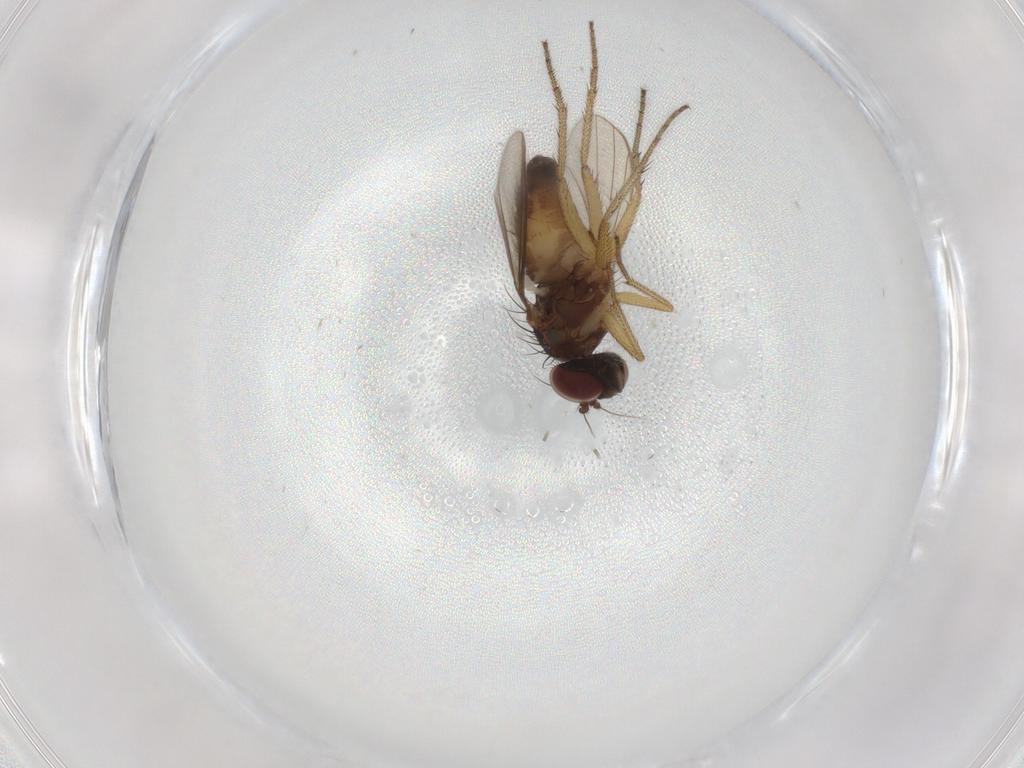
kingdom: Animalia
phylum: Arthropoda
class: Insecta
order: Diptera
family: Dolichopodidae
